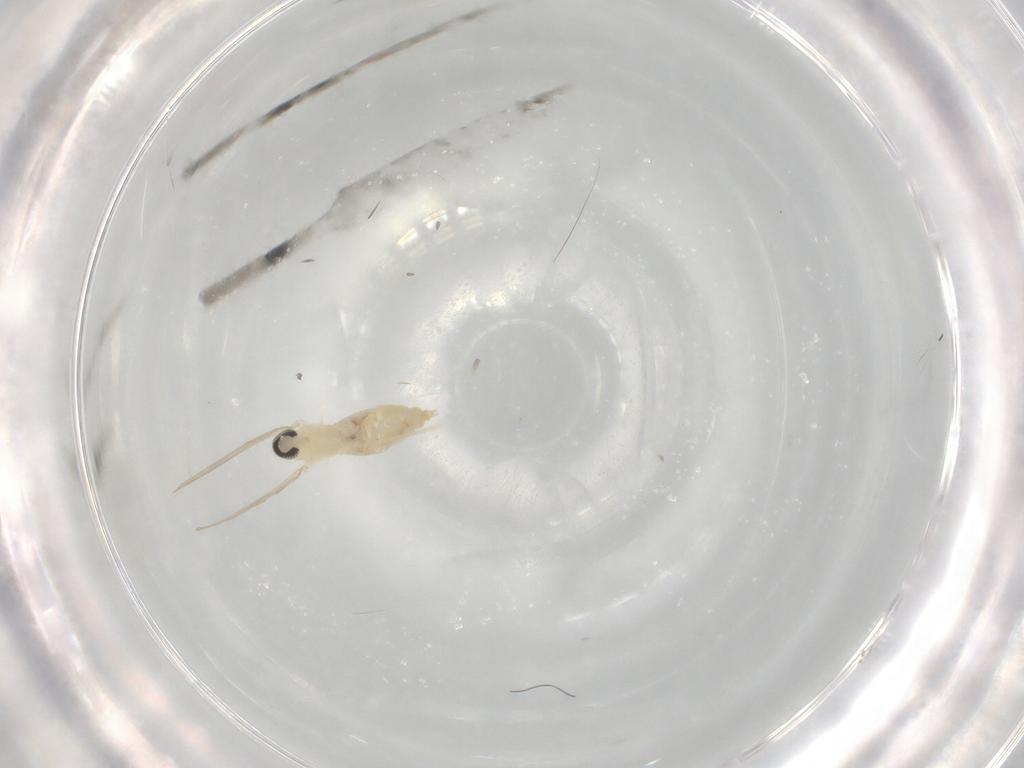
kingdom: Animalia
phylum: Arthropoda
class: Insecta
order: Diptera
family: Cecidomyiidae
